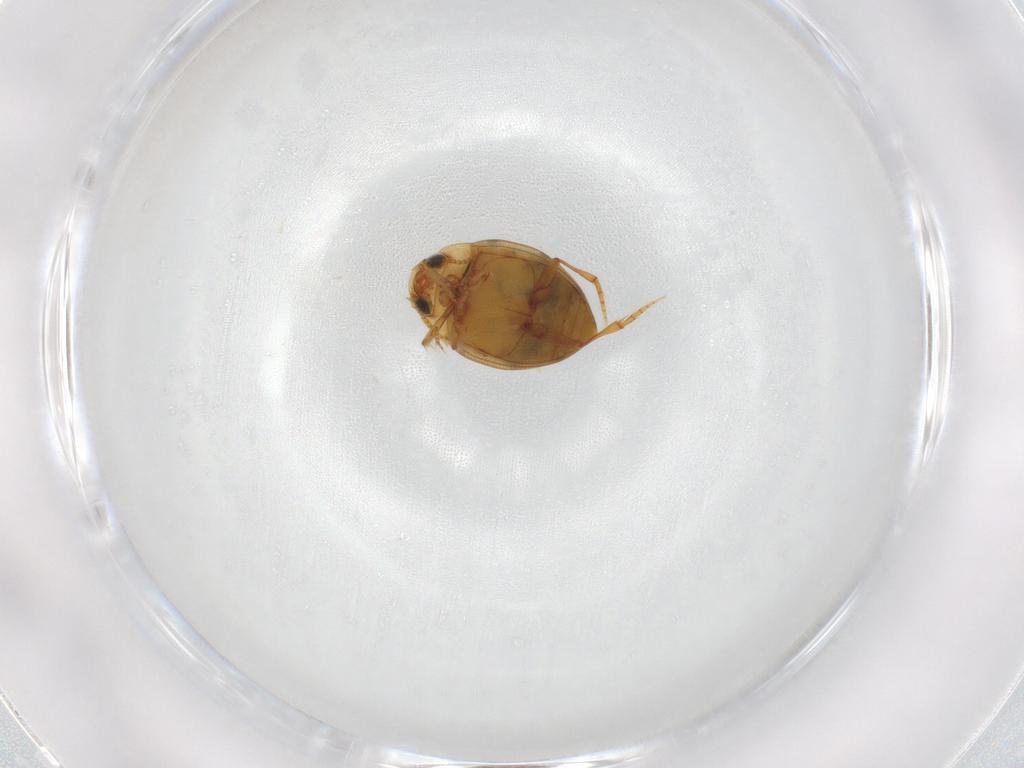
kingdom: Animalia
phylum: Arthropoda
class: Insecta
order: Coleoptera
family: Dytiscidae
